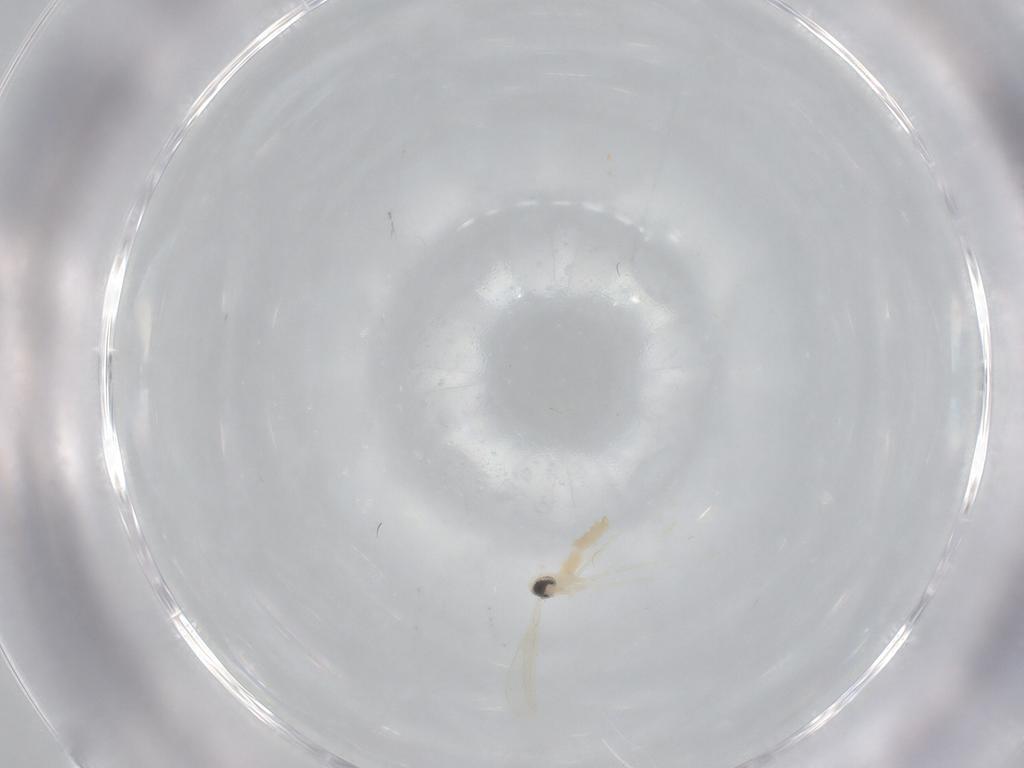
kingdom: Animalia
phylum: Arthropoda
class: Insecta
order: Diptera
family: Cecidomyiidae
